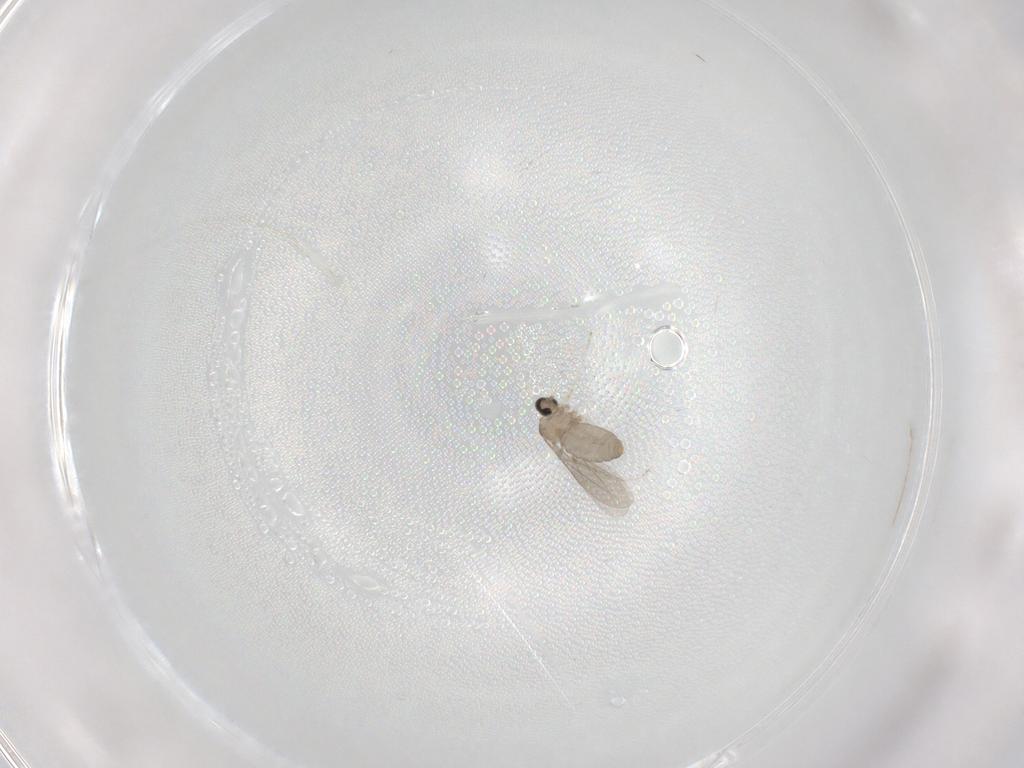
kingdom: Animalia
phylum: Arthropoda
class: Insecta
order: Diptera
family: Cecidomyiidae
